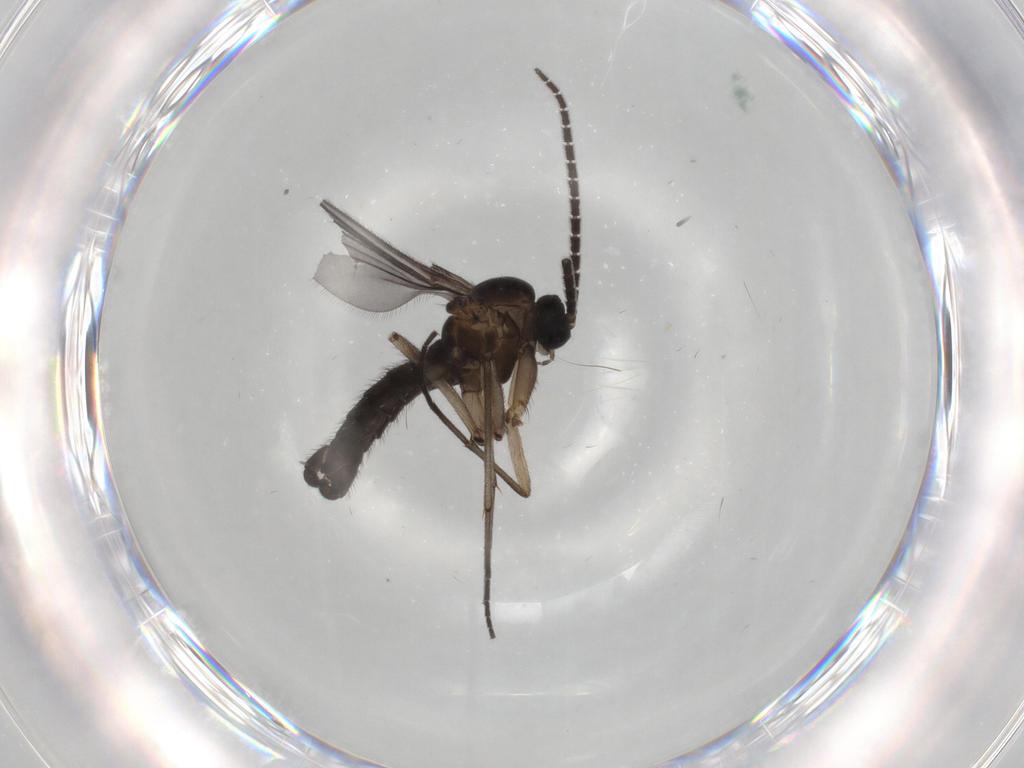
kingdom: Animalia
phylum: Arthropoda
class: Insecta
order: Diptera
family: Sciaridae
